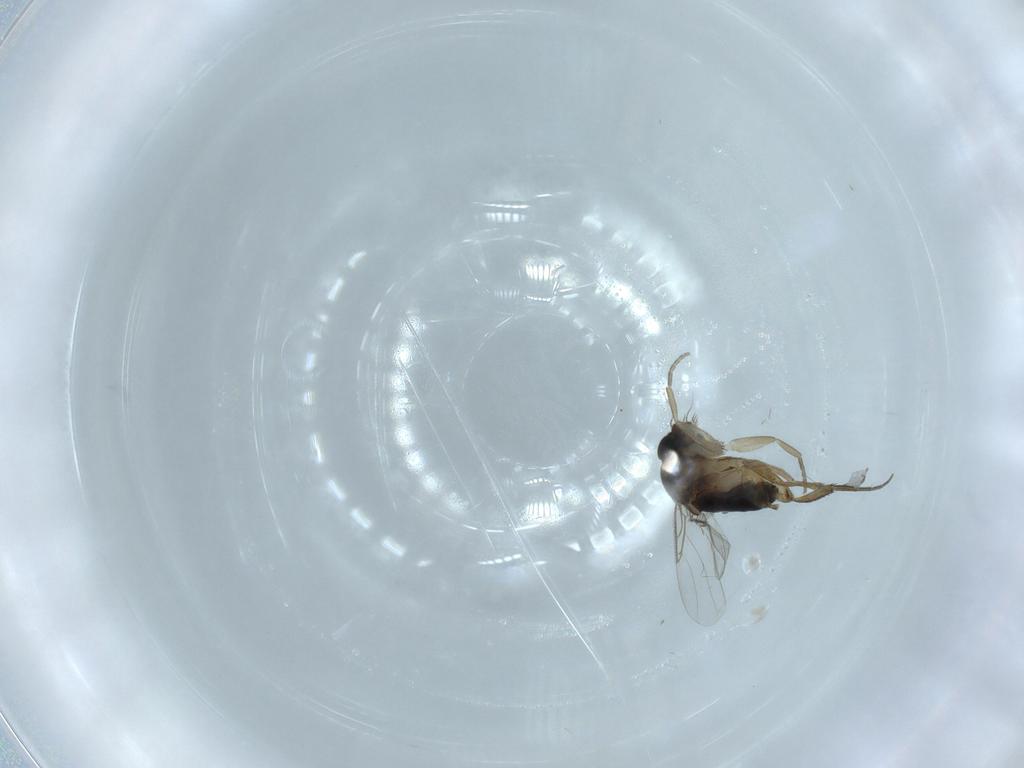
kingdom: Animalia
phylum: Arthropoda
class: Insecta
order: Diptera
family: Phoridae
